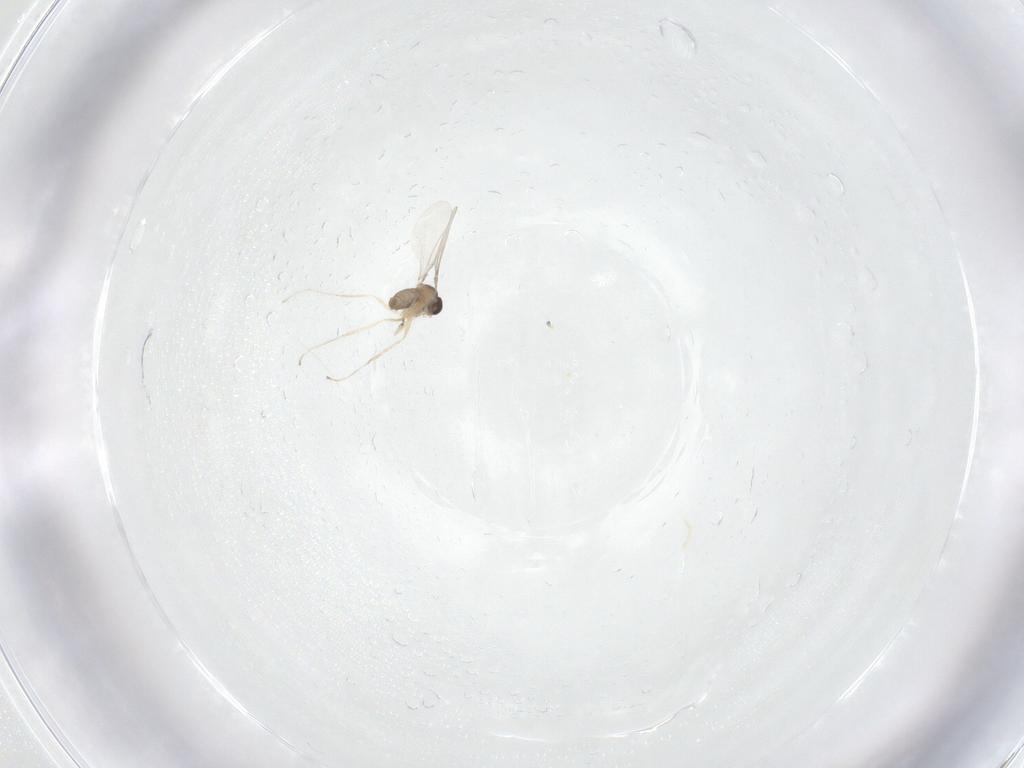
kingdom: Animalia
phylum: Arthropoda
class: Insecta
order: Diptera
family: Cecidomyiidae
